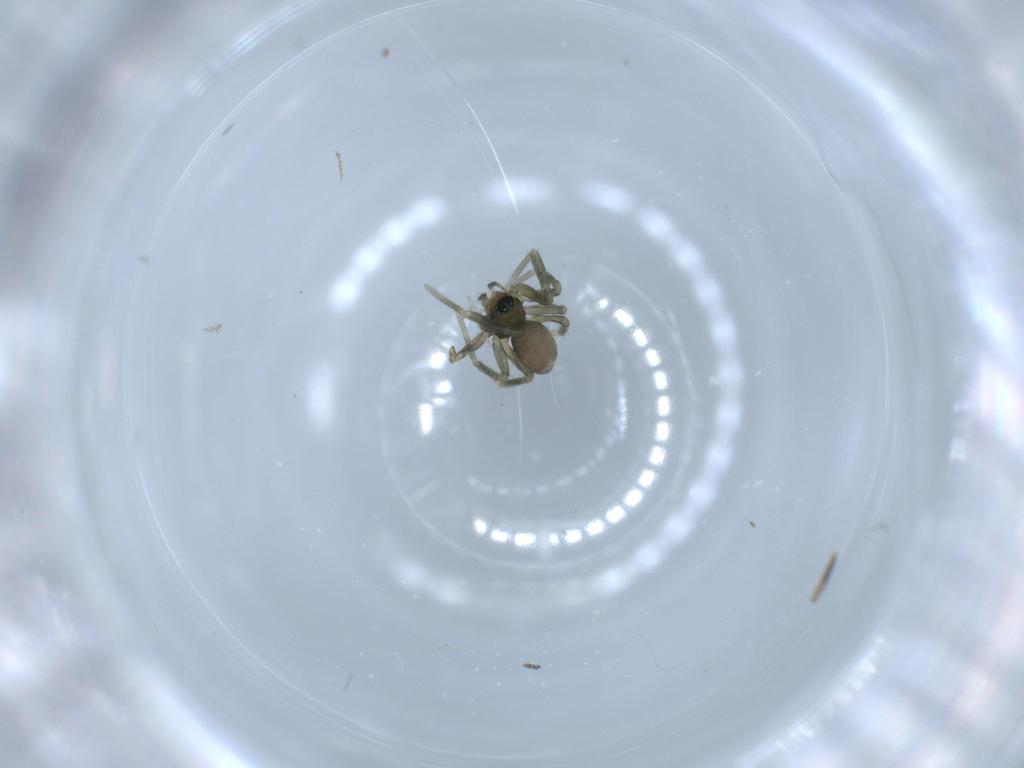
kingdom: Animalia
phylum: Arthropoda
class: Arachnida
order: Araneae
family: Linyphiidae
